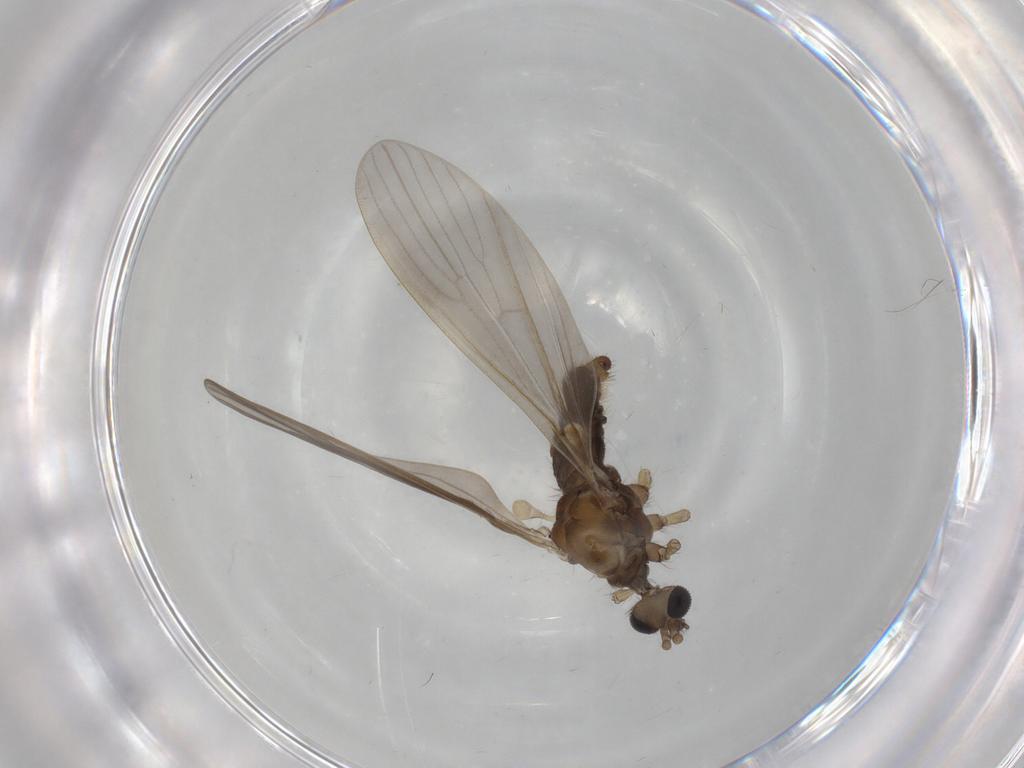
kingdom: Animalia
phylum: Arthropoda
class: Insecta
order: Diptera
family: Limoniidae
